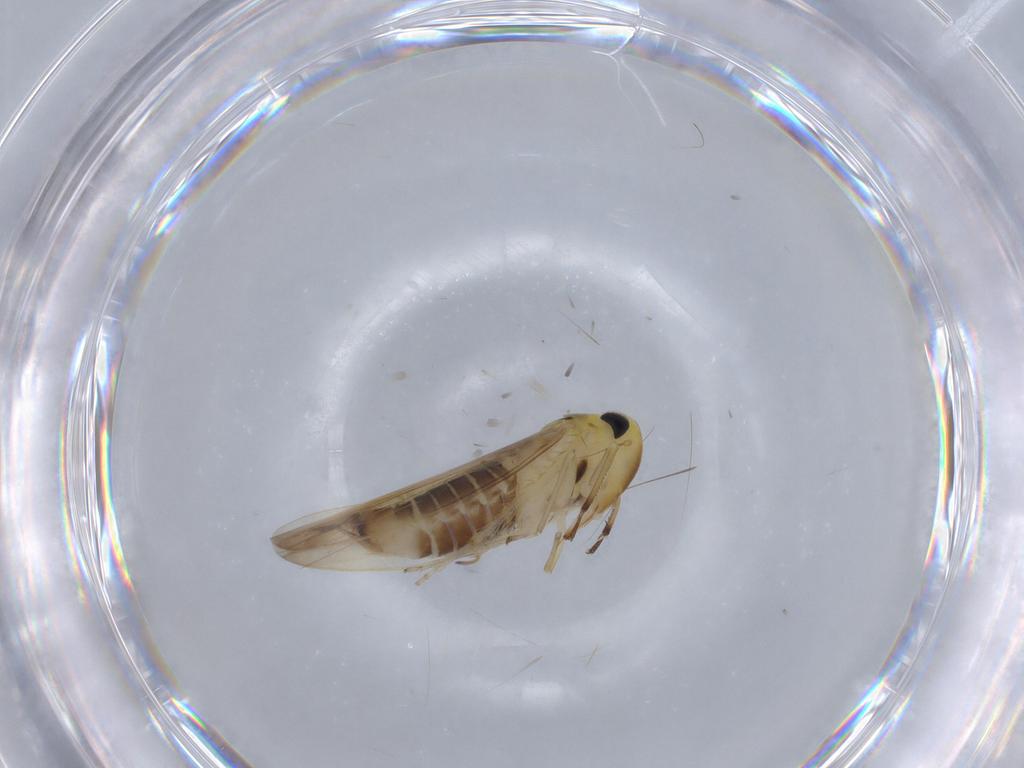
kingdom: Animalia
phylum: Arthropoda
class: Insecta
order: Hemiptera
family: Cicadellidae
